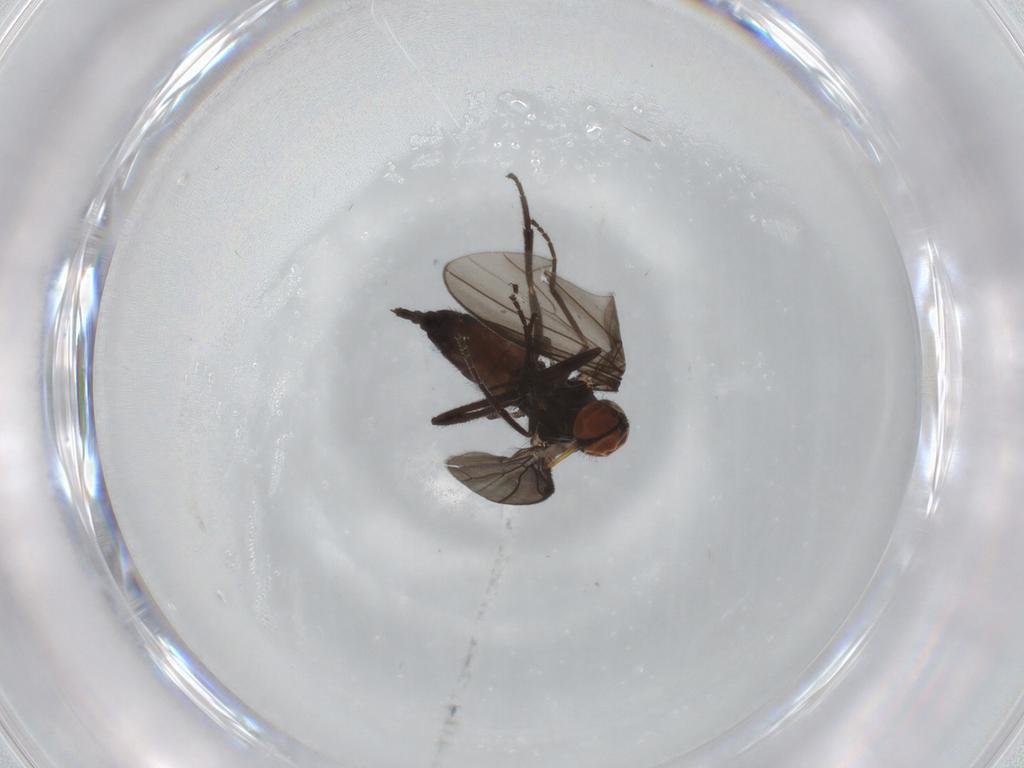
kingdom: Animalia
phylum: Arthropoda
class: Insecta
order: Diptera
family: Empididae
